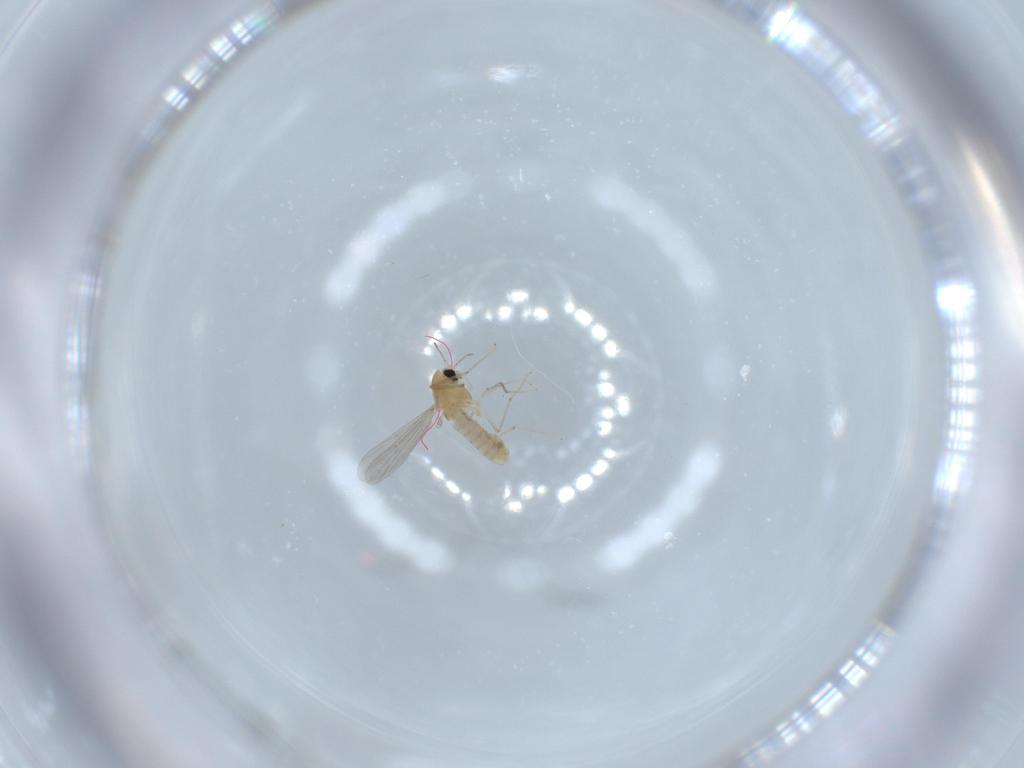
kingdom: Animalia
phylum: Arthropoda
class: Insecta
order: Diptera
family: Chironomidae
